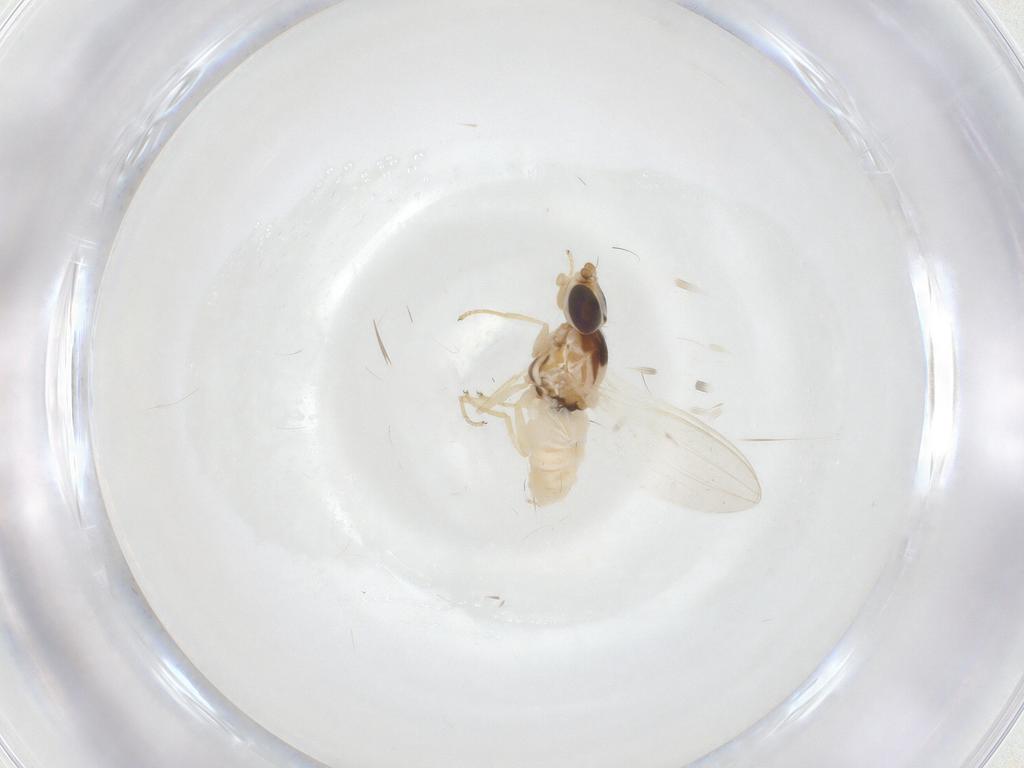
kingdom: Animalia
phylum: Arthropoda
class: Insecta
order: Diptera
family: Chloropidae
